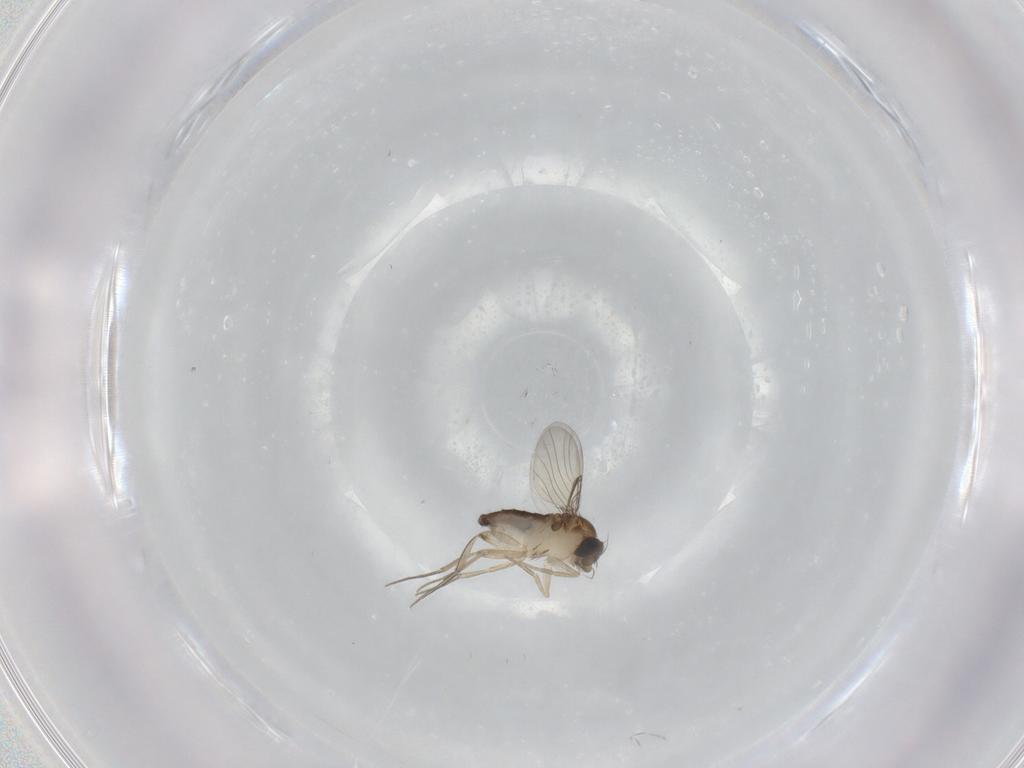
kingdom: Animalia
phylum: Arthropoda
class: Insecta
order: Diptera
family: Phoridae
